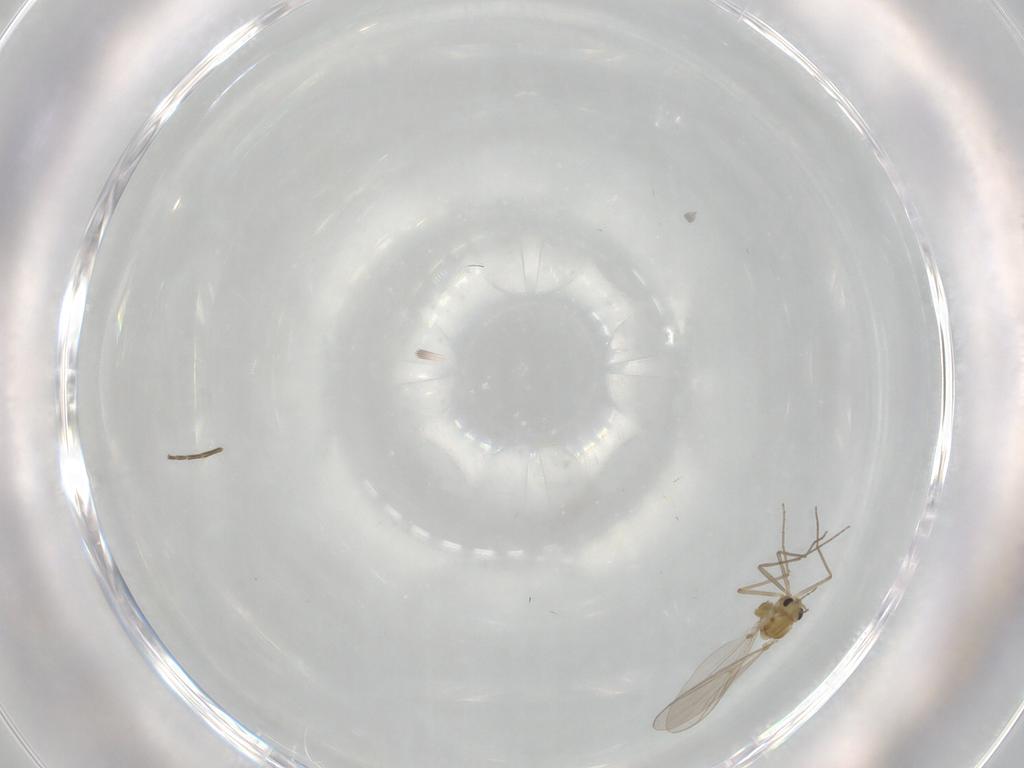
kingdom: Animalia
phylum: Arthropoda
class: Insecta
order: Diptera
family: Chironomidae
